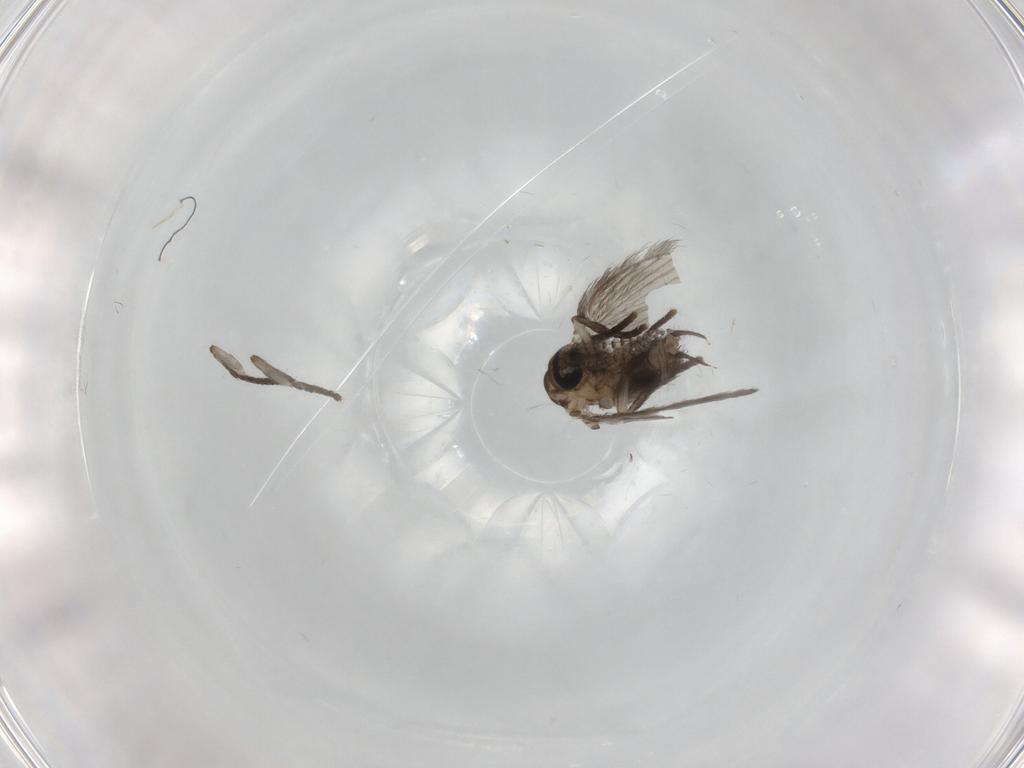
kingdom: Animalia
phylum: Arthropoda
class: Insecta
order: Diptera
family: Psychodidae
